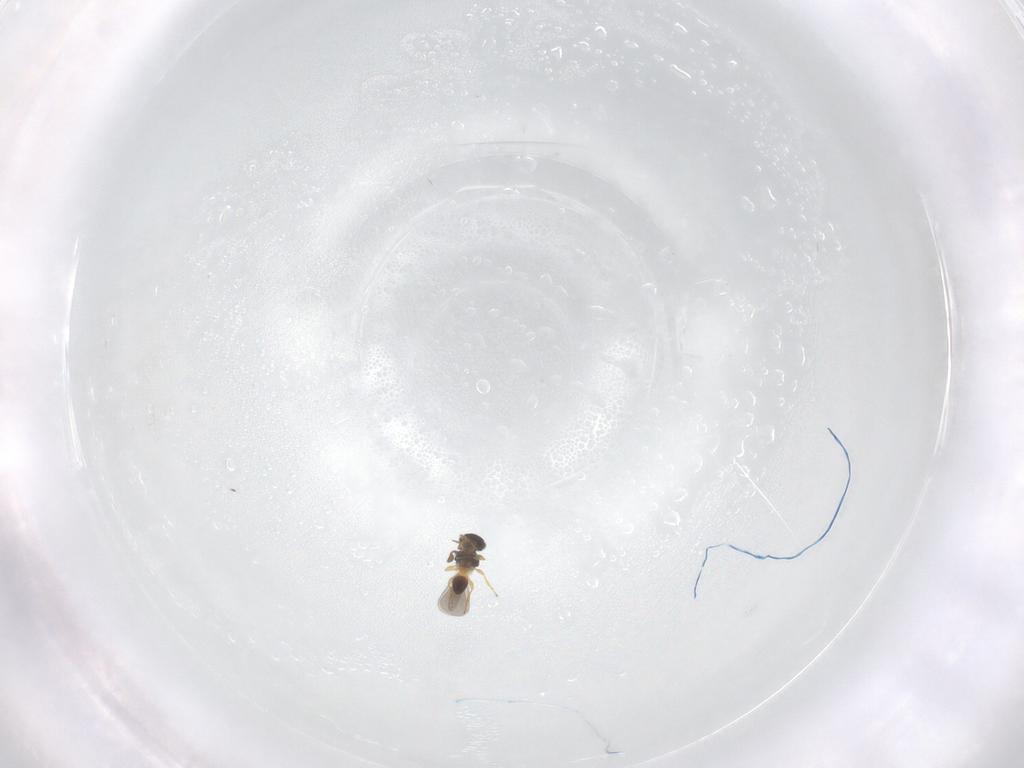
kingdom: Animalia
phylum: Arthropoda
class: Insecta
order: Hymenoptera
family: Platygastridae
